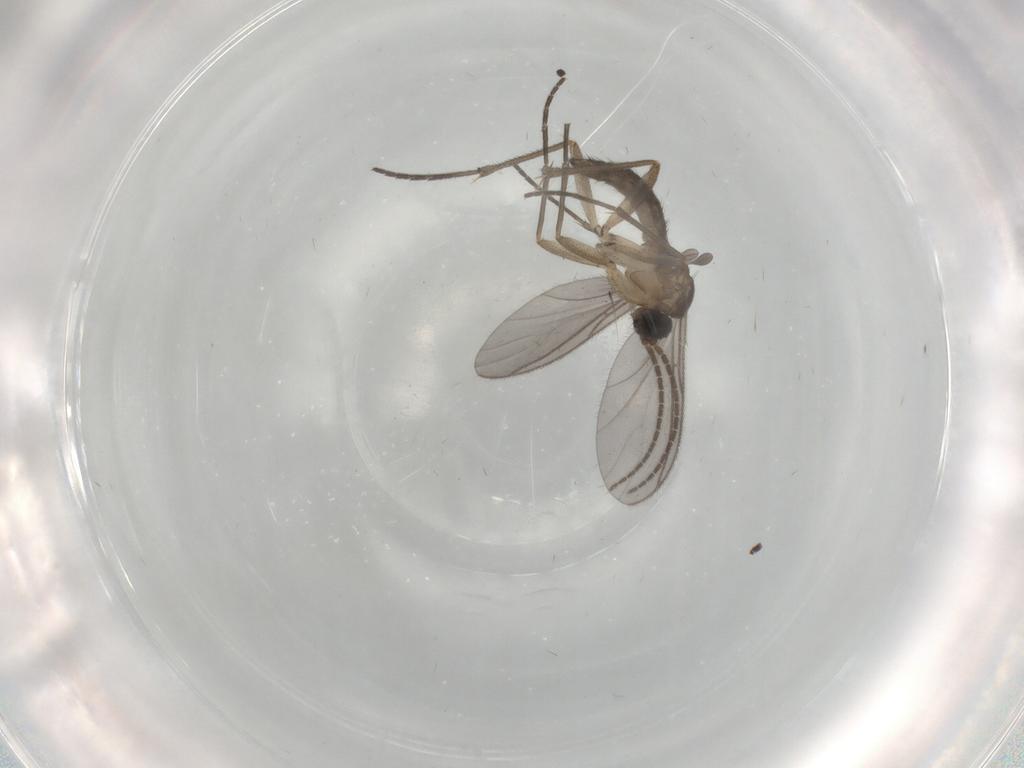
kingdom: Animalia
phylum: Arthropoda
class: Insecta
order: Diptera
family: Sciaridae
